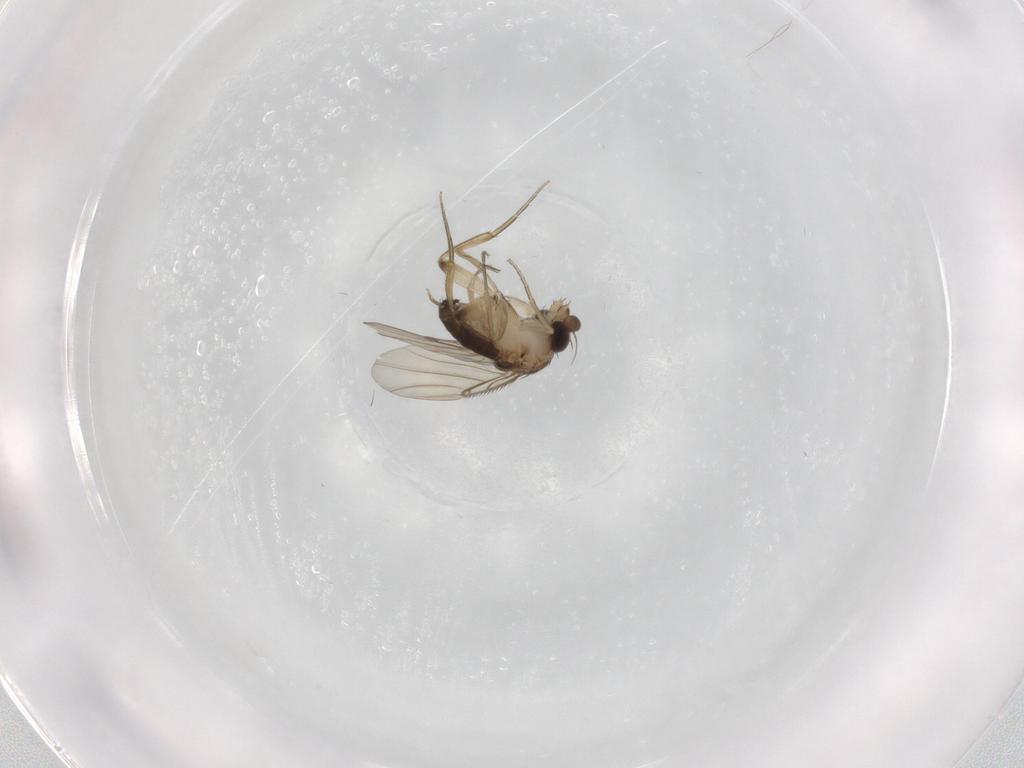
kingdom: Animalia
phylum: Arthropoda
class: Insecta
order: Diptera
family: Phoridae
